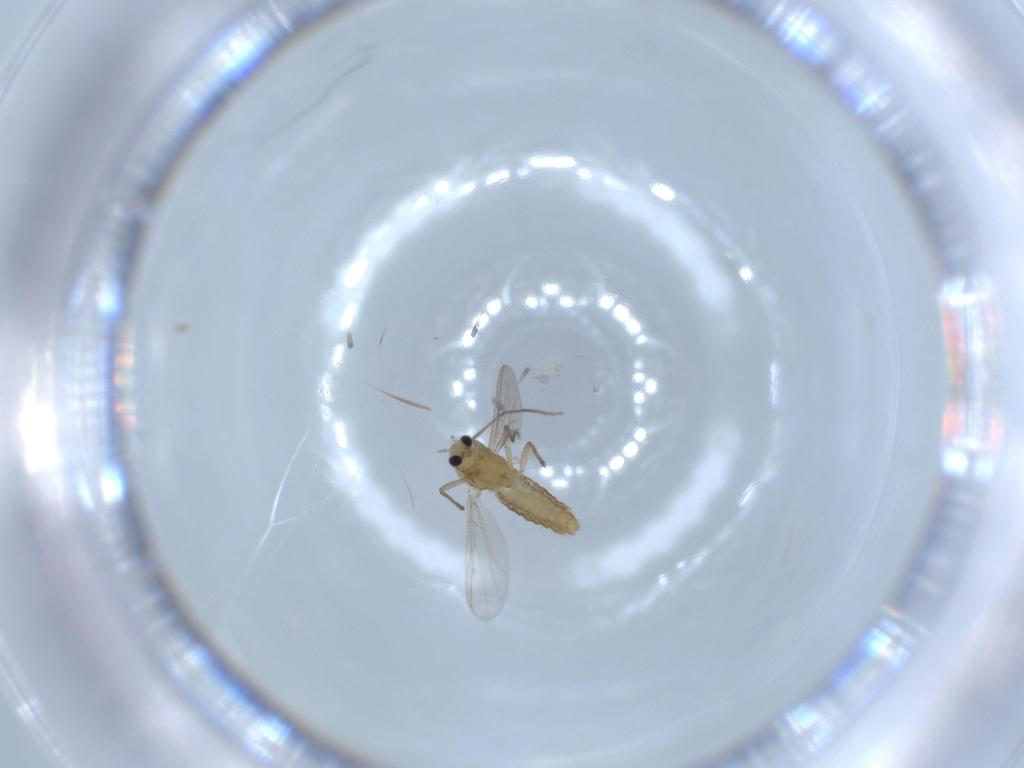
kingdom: Animalia
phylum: Arthropoda
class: Insecta
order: Diptera
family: Chironomidae
